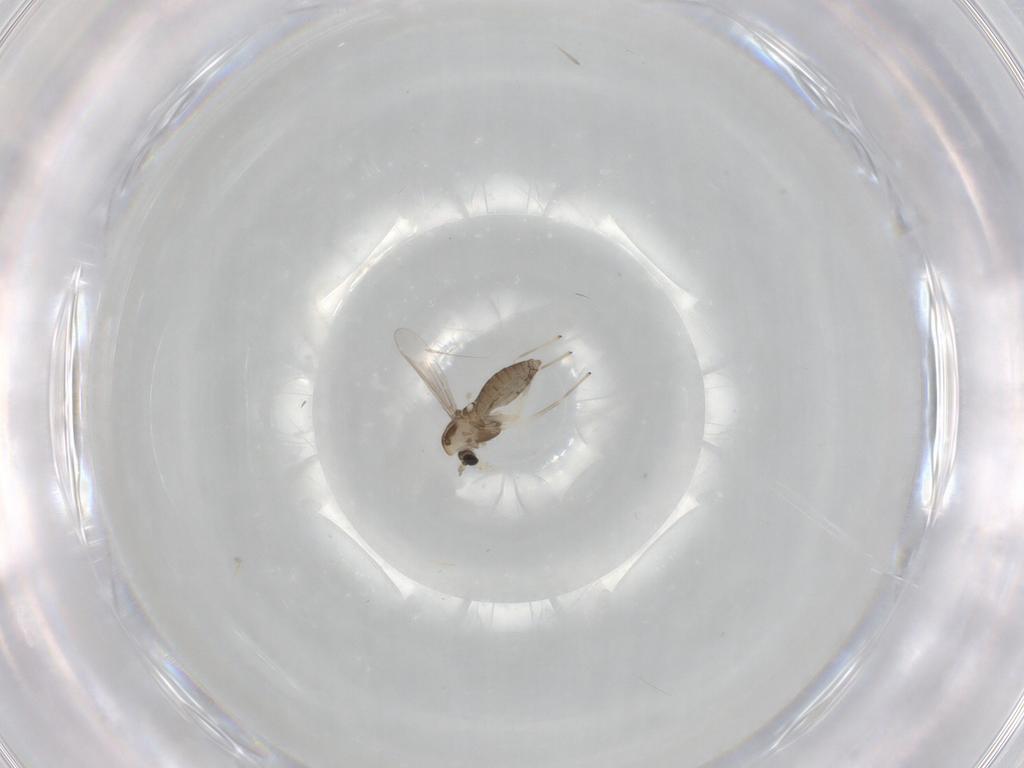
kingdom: Animalia
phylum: Arthropoda
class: Insecta
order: Diptera
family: Chironomidae
